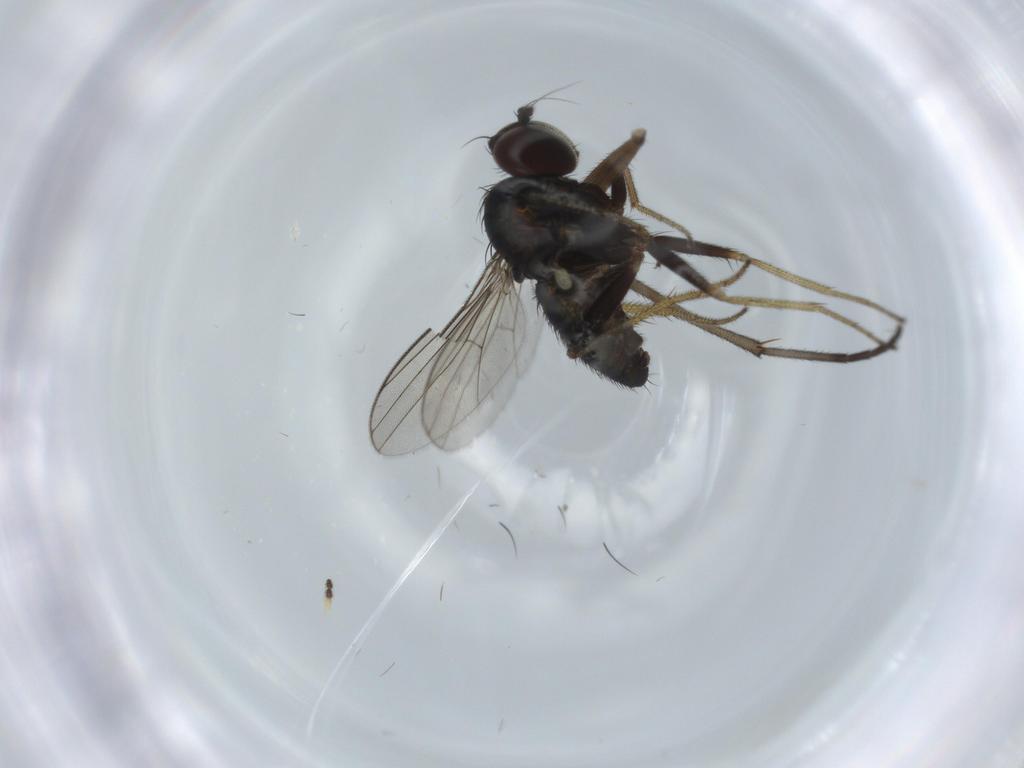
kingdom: Animalia
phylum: Arthropoda
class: Insecta
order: Diptera
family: Sciaridae
